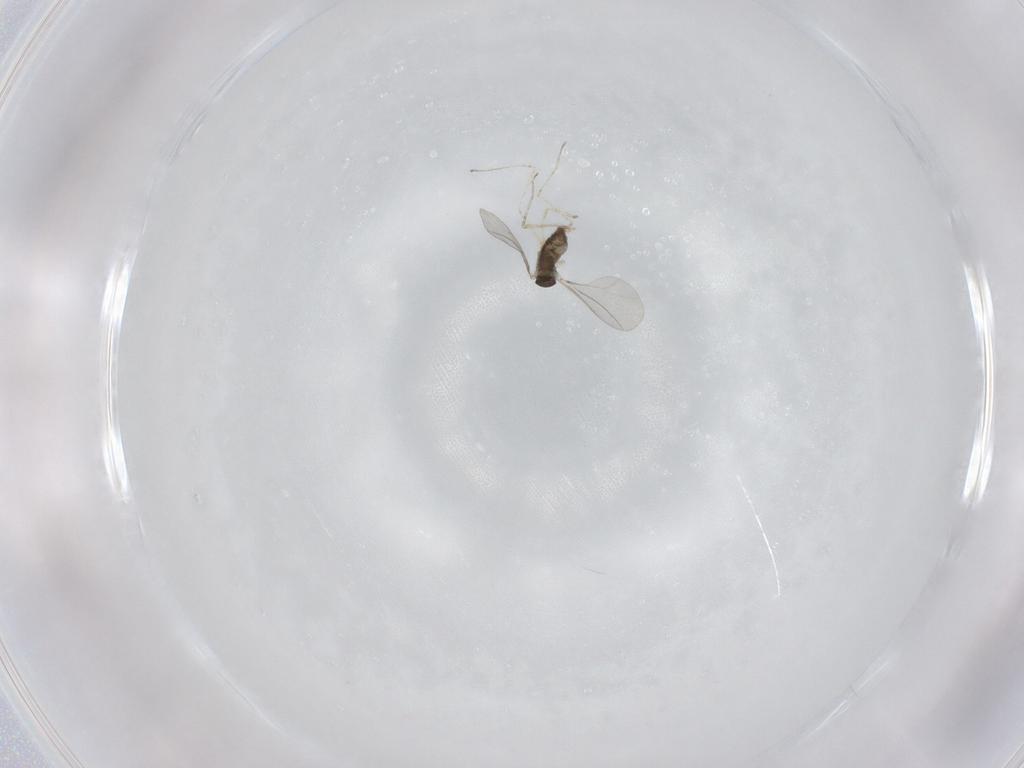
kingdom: Animalia
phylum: Arthropoda
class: Insecta
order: Diptera
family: Cecidomyiidae
